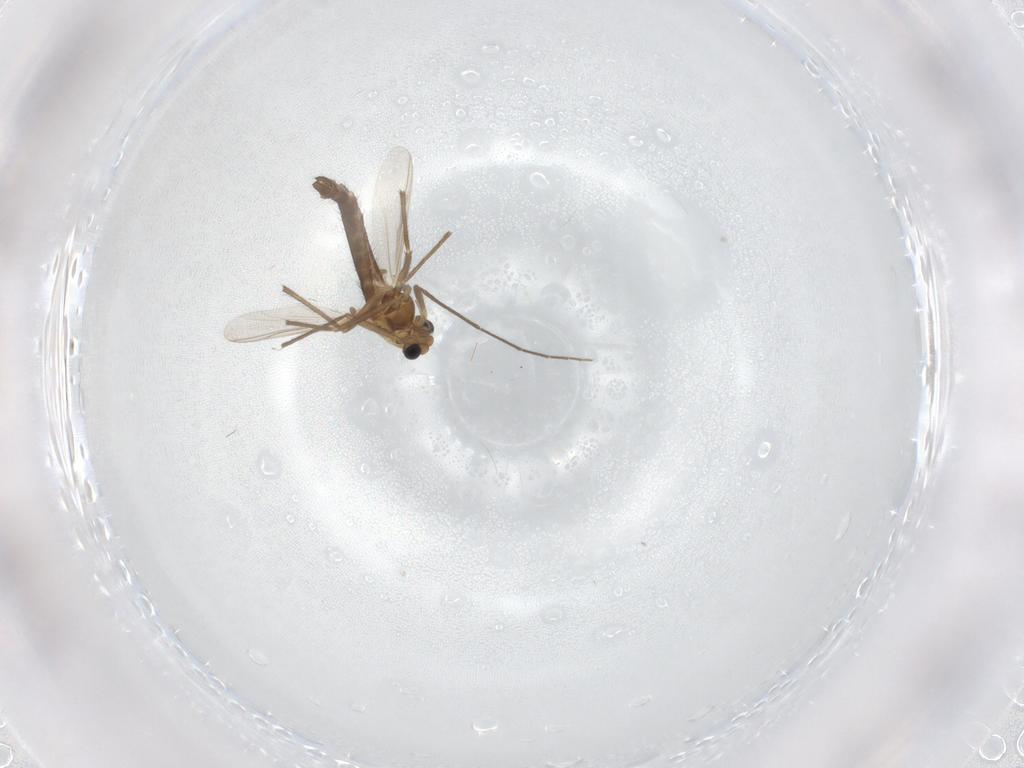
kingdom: Animalia
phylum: Arthropoda
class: Insecta
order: Diptera
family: Chironomidae
